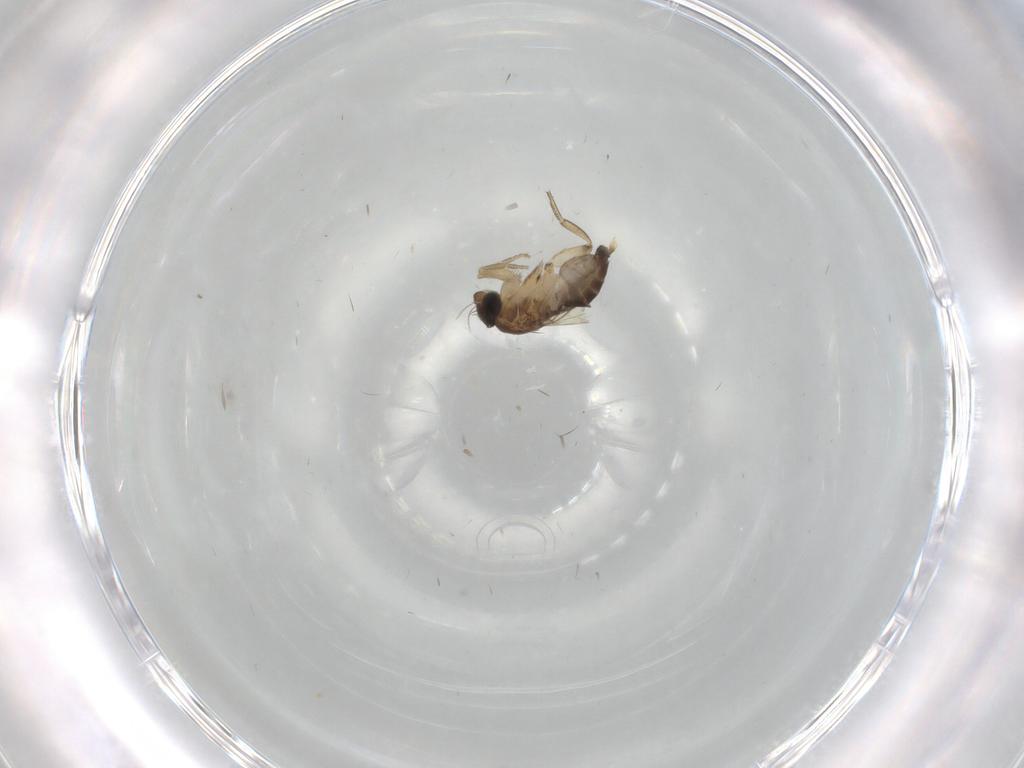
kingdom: Animalia
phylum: Arthropoda
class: Insecta
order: Diptera
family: Phoridae
